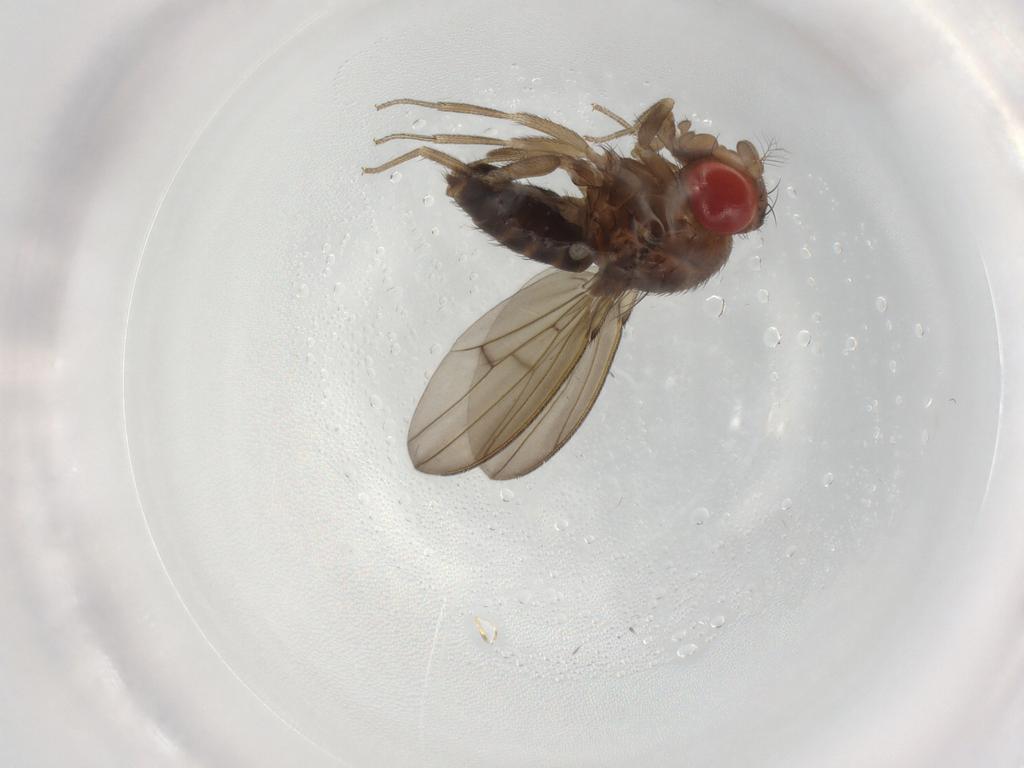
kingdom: Animalia
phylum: Arthropoda
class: Insecta
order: Diptera
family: Drosophilidae
